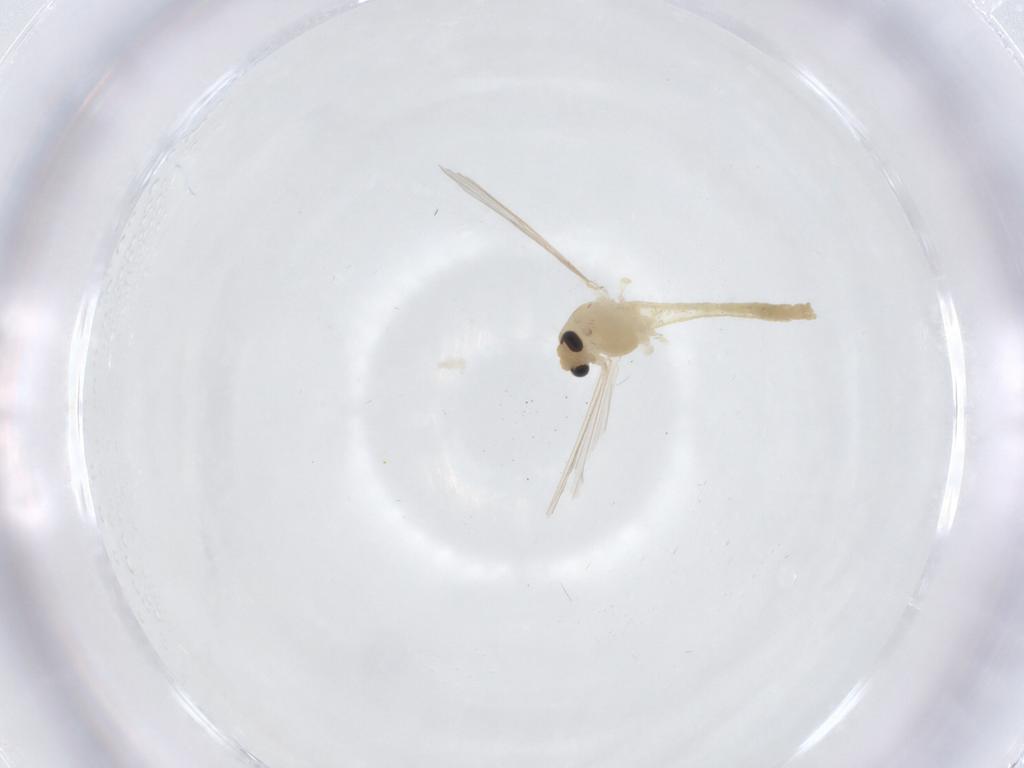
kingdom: Animalia
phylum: Arthropoda
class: Insecta
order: Diptera
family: Chironomidae
